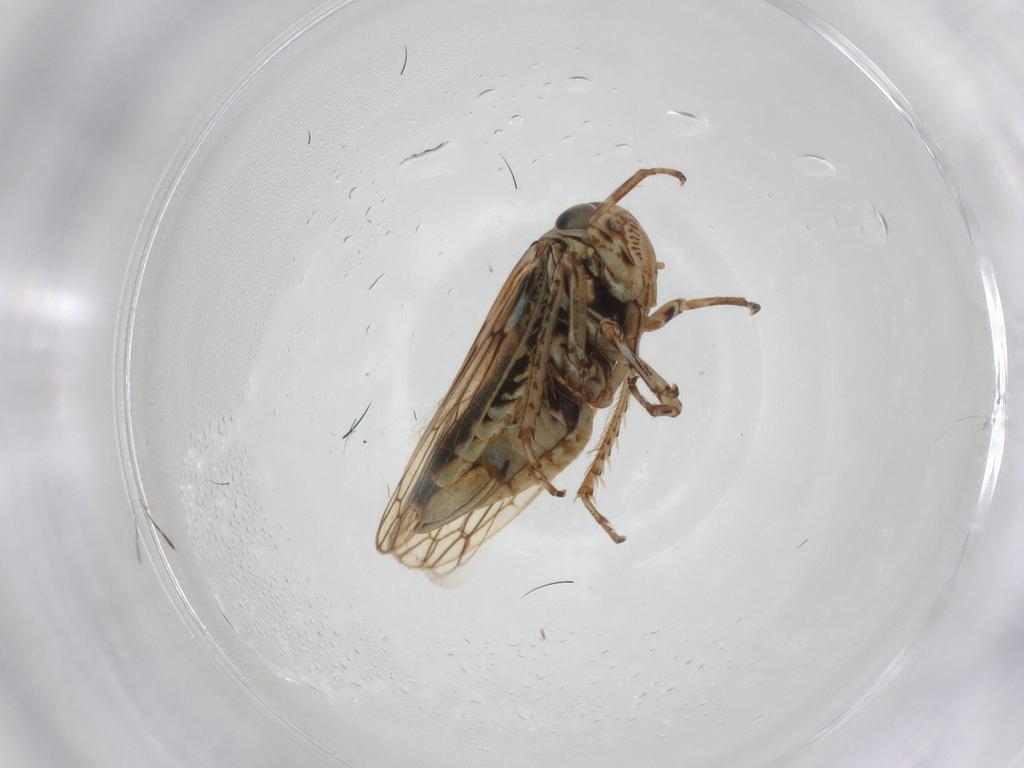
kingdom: Animalia
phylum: Arthropoda
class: Insecta
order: Hemiptera
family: Cicadellidae
